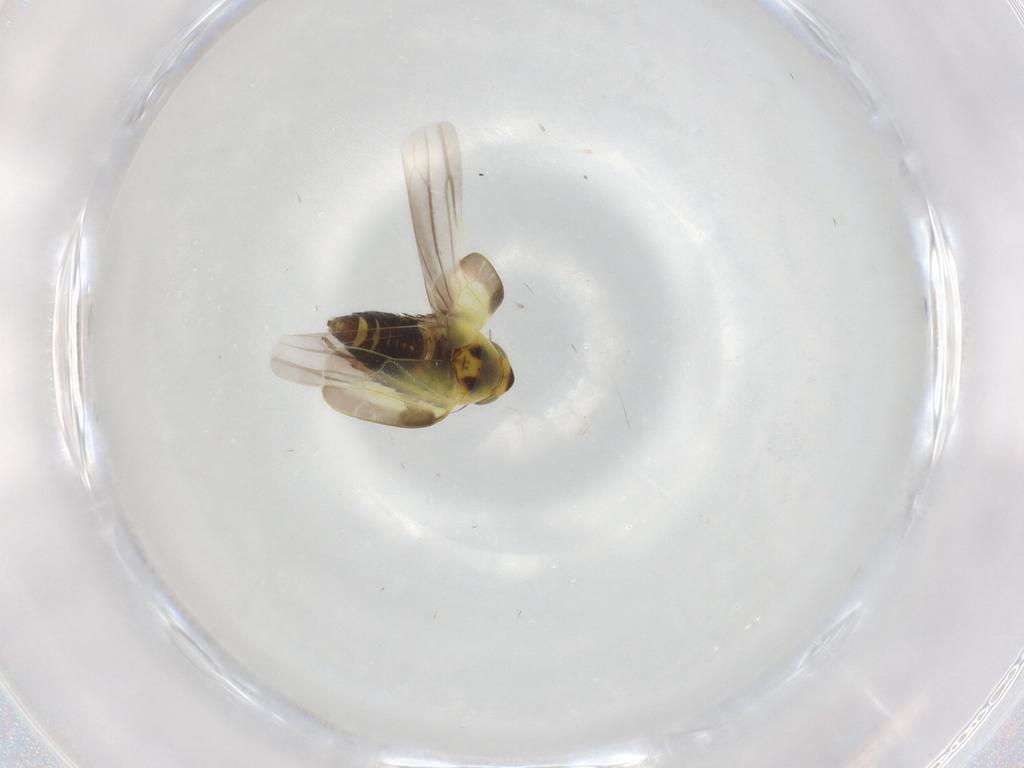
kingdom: Animalia
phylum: Arthropoda
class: Insecta
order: Hemiptera
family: Cicadellidae
